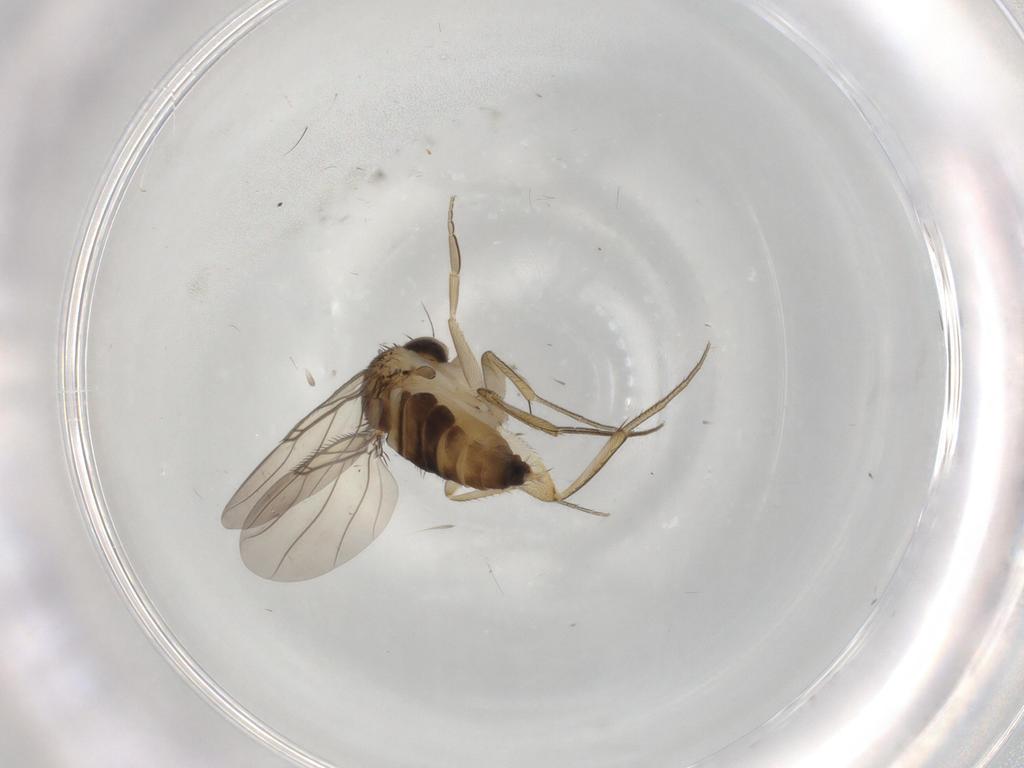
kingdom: Animalia
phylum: Arthropoda
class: Insecta
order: Diptera
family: Phoridae
